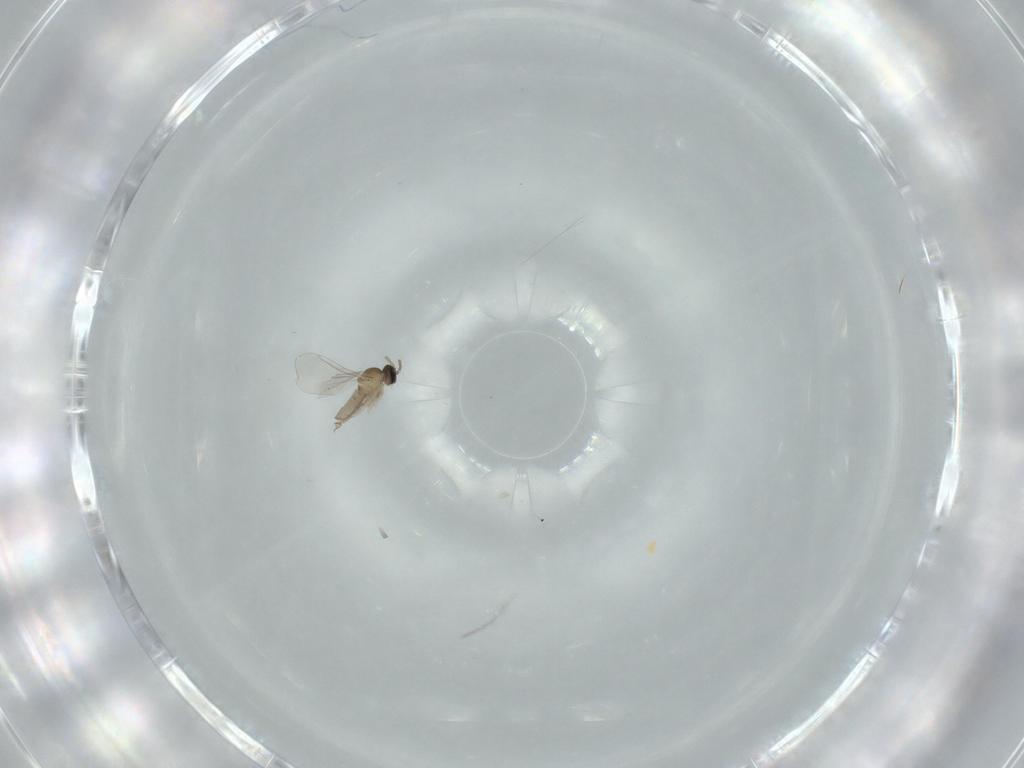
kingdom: Animalia
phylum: Arthropoda
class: Insecta
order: Diptera
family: Cecidomyiidae
